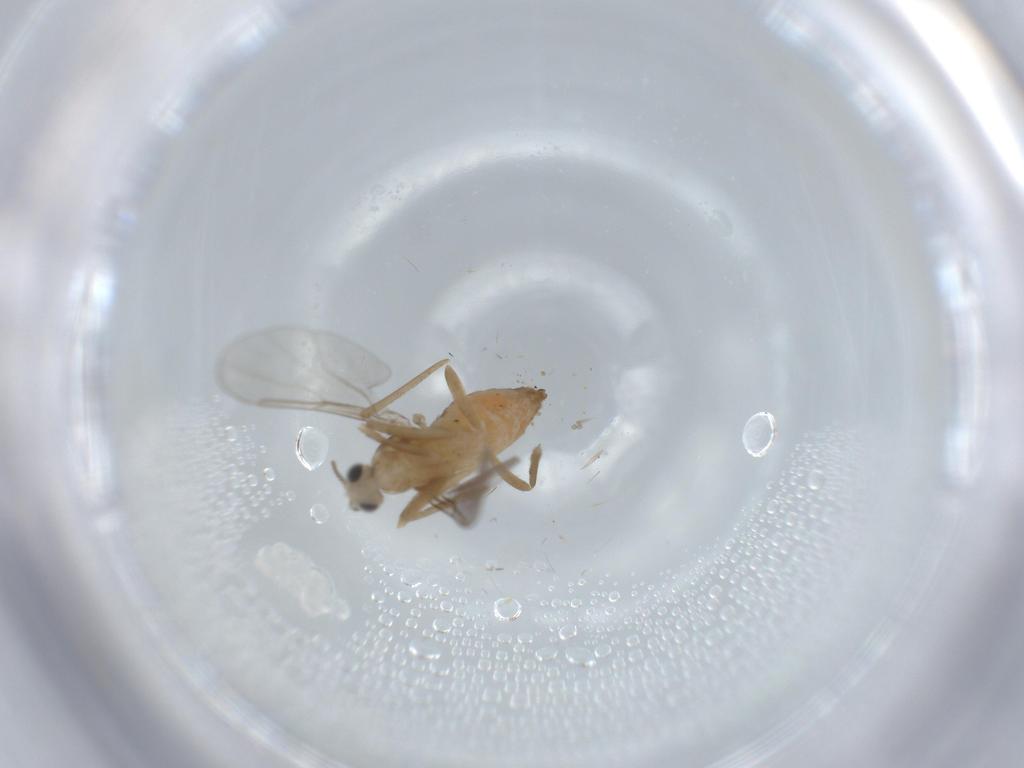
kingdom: Animalia
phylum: Arthropoda
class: Insecta
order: Diptera
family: Cecidomyiidae
